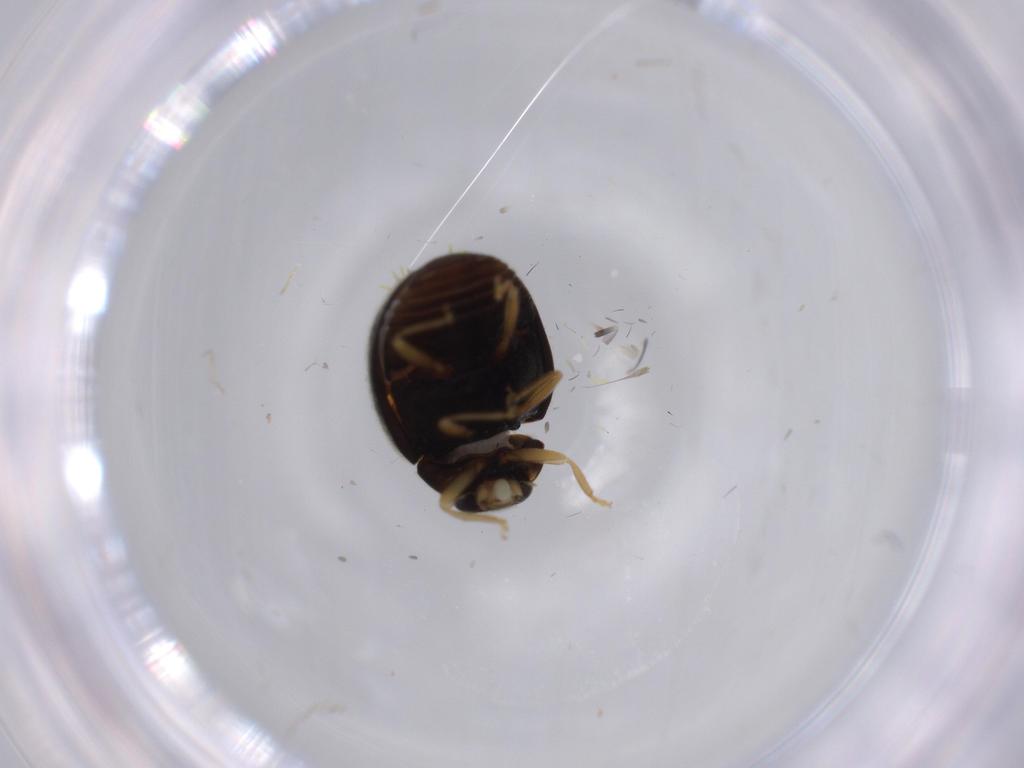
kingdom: Animalia
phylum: Arthropoda
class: Insecta
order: Coleoptera
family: Coccinellidae
